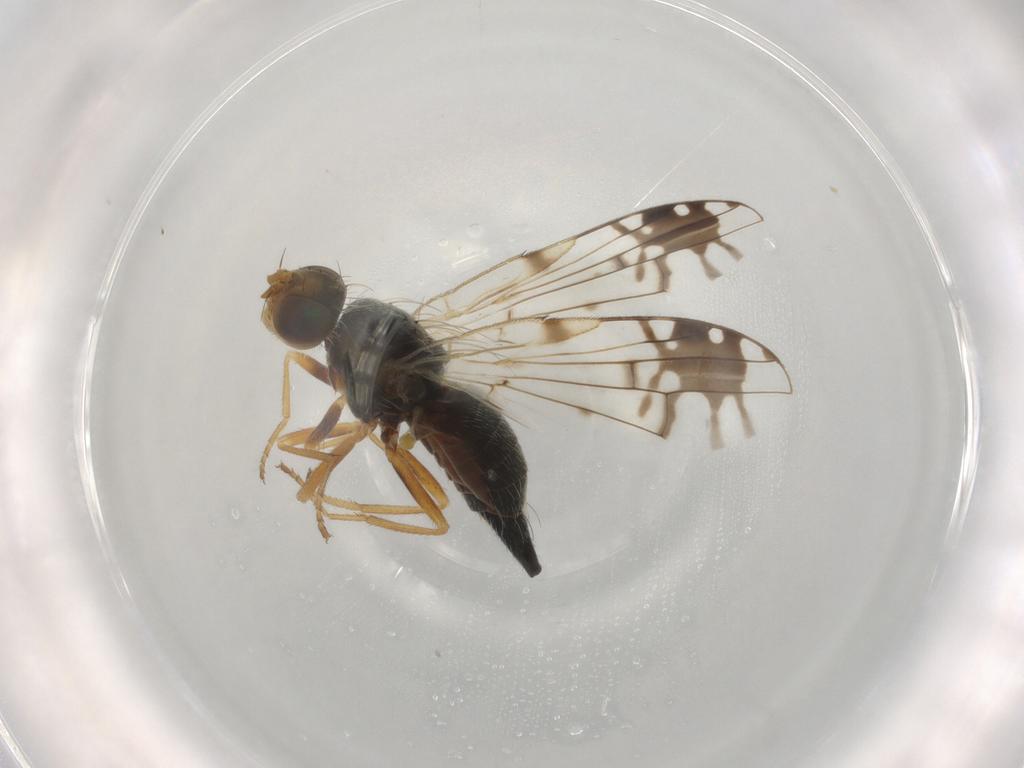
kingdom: Animalia
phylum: Arthropoda
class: Insecta
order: Diptera
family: Tephritidae
